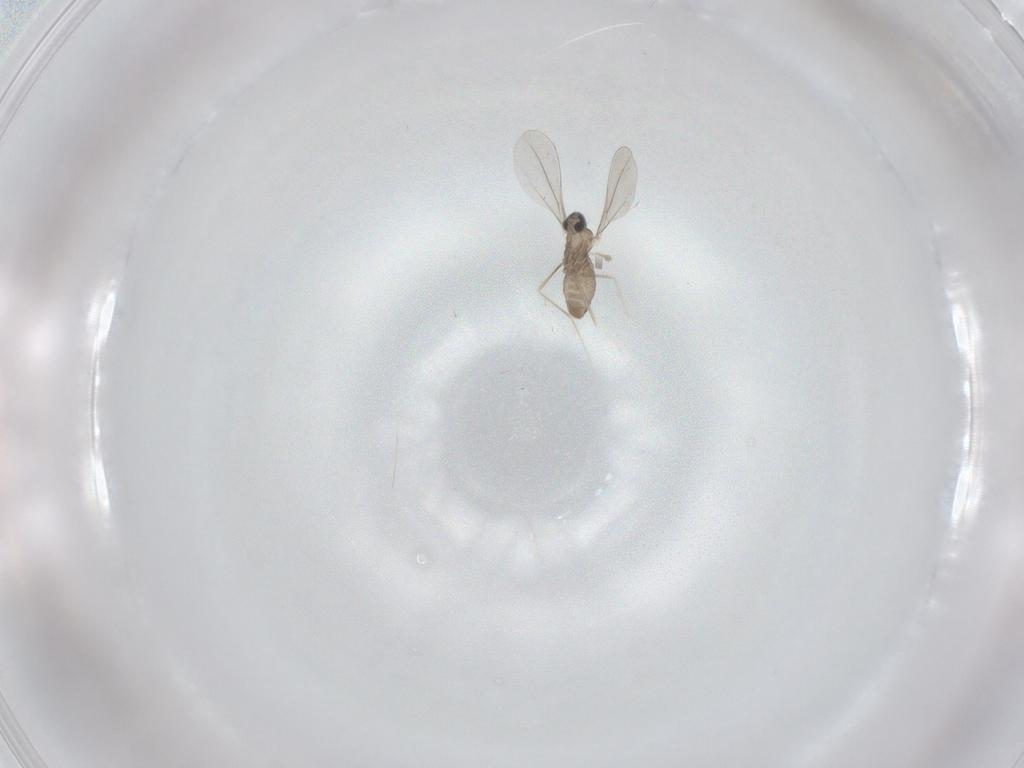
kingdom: Animalia
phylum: Arthropoda
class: Insecta
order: Diptera
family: Cecidomyiidae
